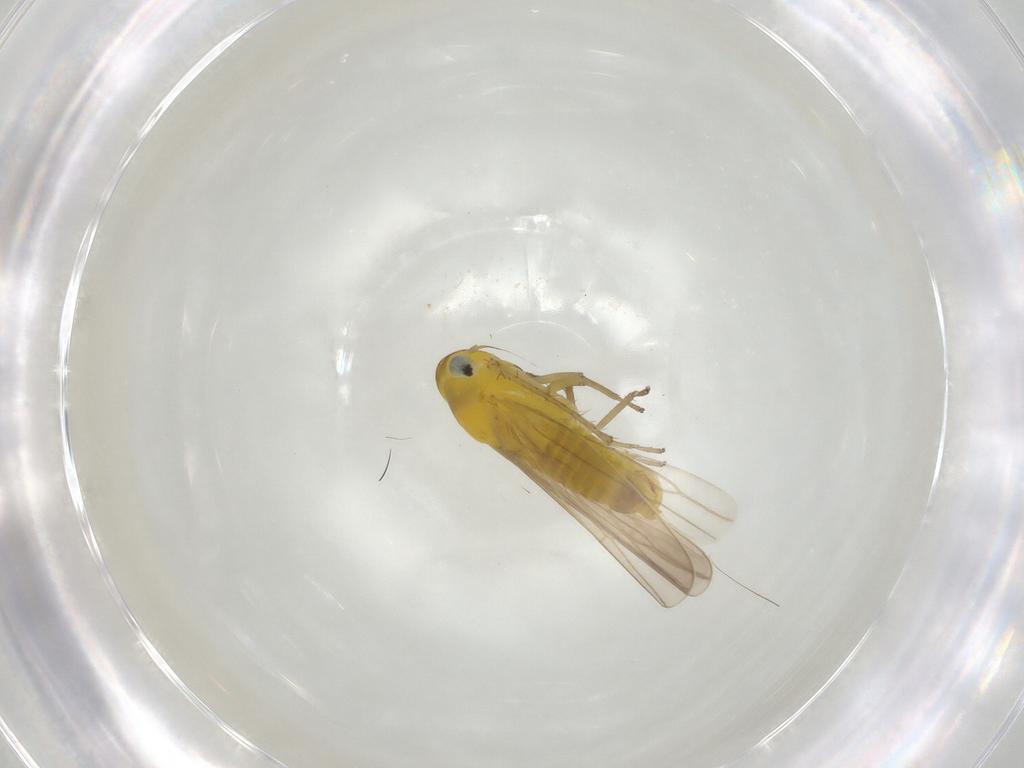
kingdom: Animalia
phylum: Arthropoda
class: Insecta
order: Hemiptera
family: Cicadellidae
